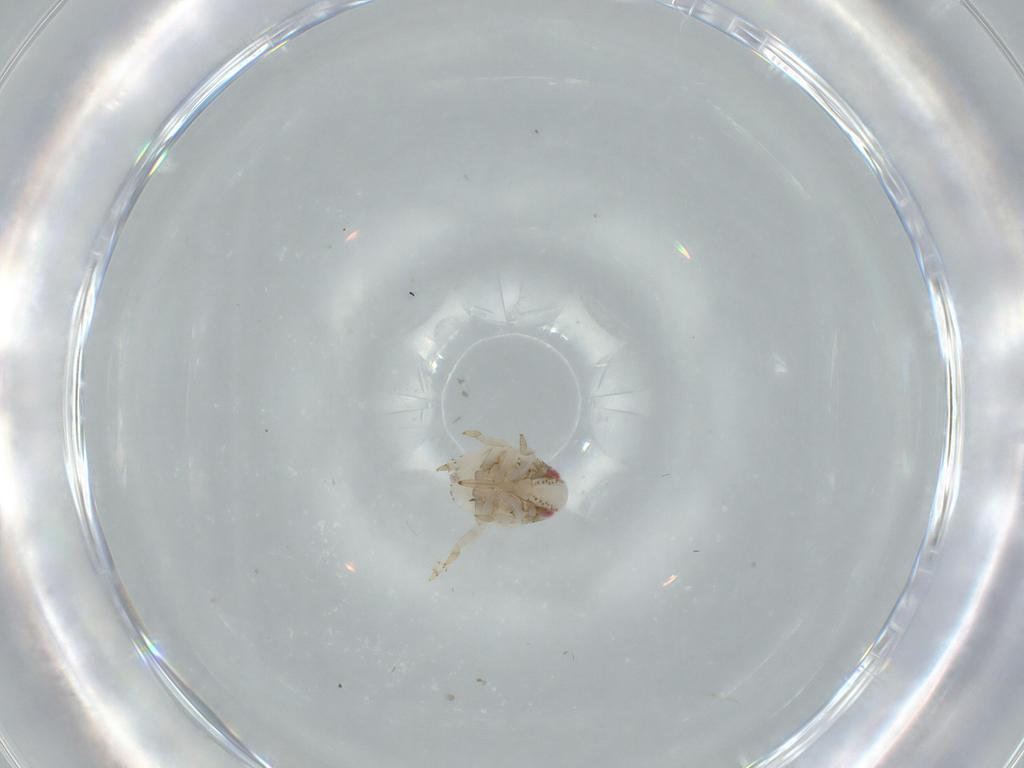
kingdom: Animalia
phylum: Arthropoda
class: Insecta
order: Hemiptera
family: Acanaloniidae
